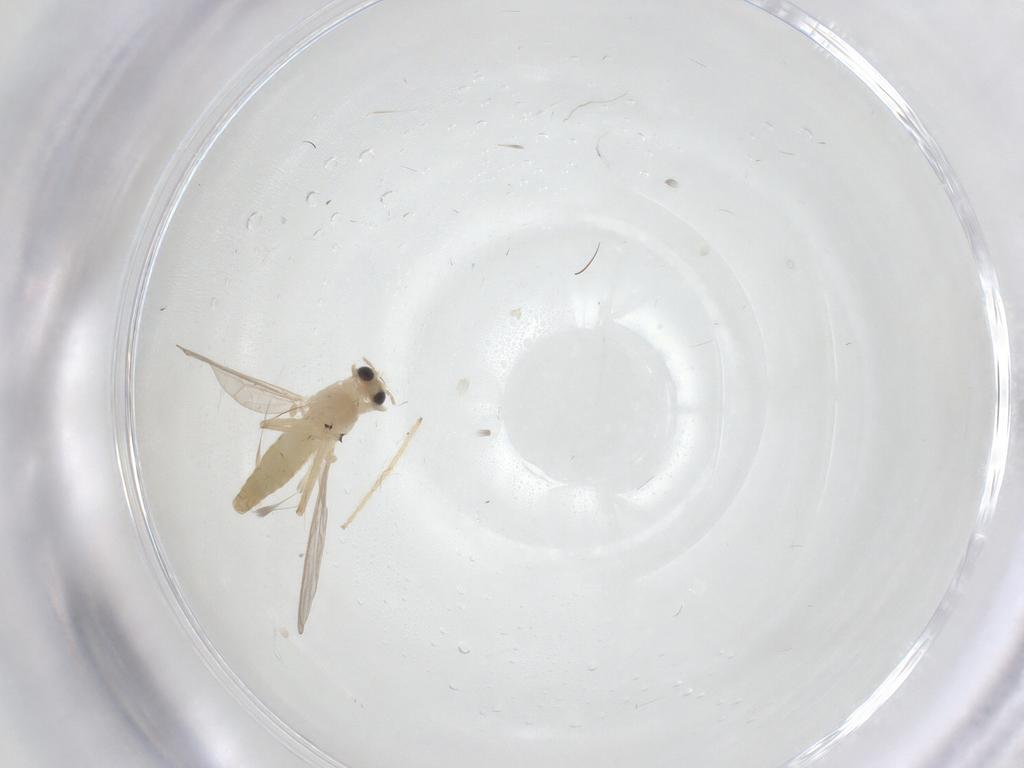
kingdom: Animalia
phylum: Arthropoda
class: Insecta
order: Diptera
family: Chironomidae
